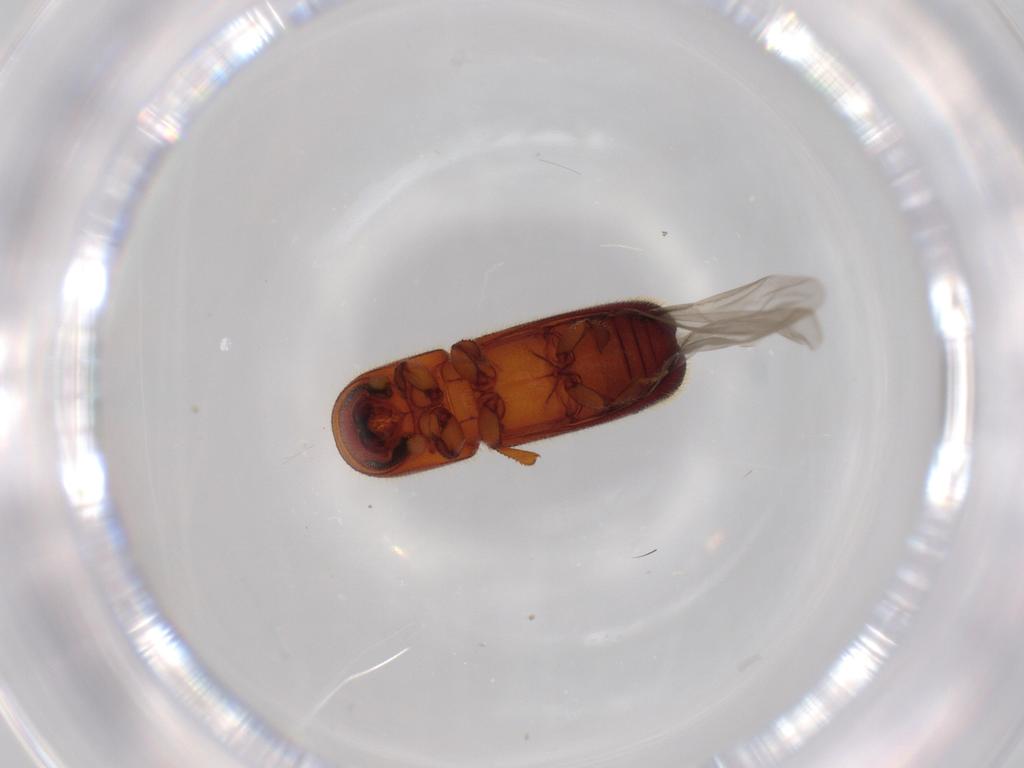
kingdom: Animalia
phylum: Arthropoda
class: Insecta
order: Coleoptera
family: Curculionidae
